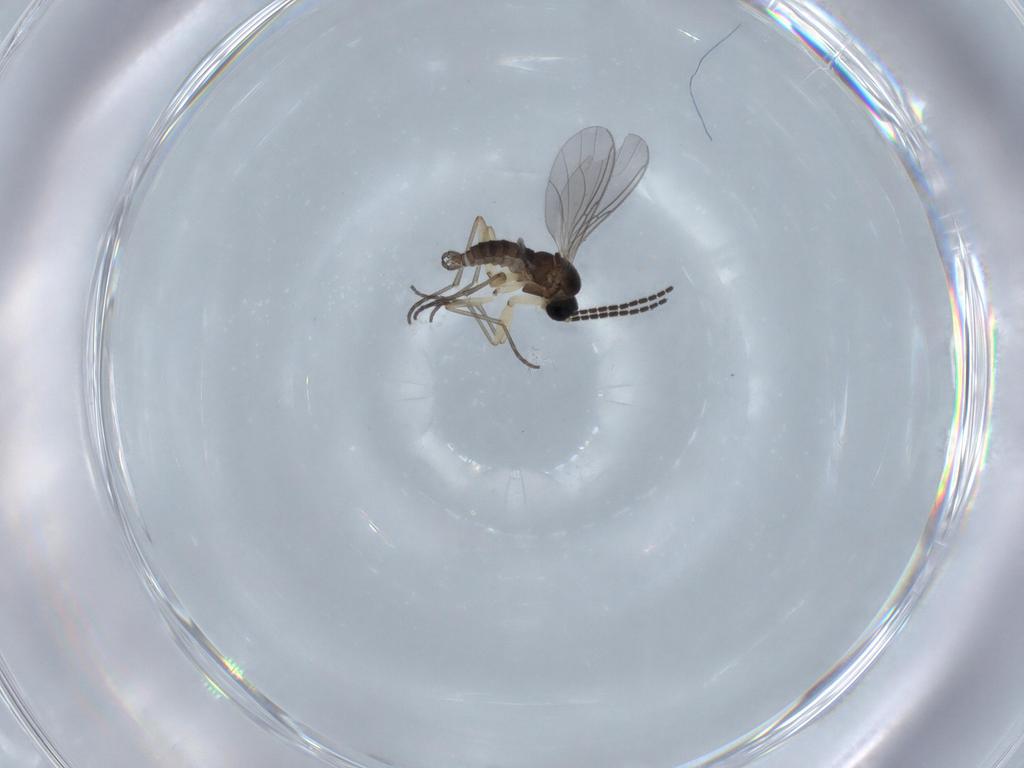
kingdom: Animalia
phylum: Arthropoda
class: Insecta
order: Diptera
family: Sciaridae
